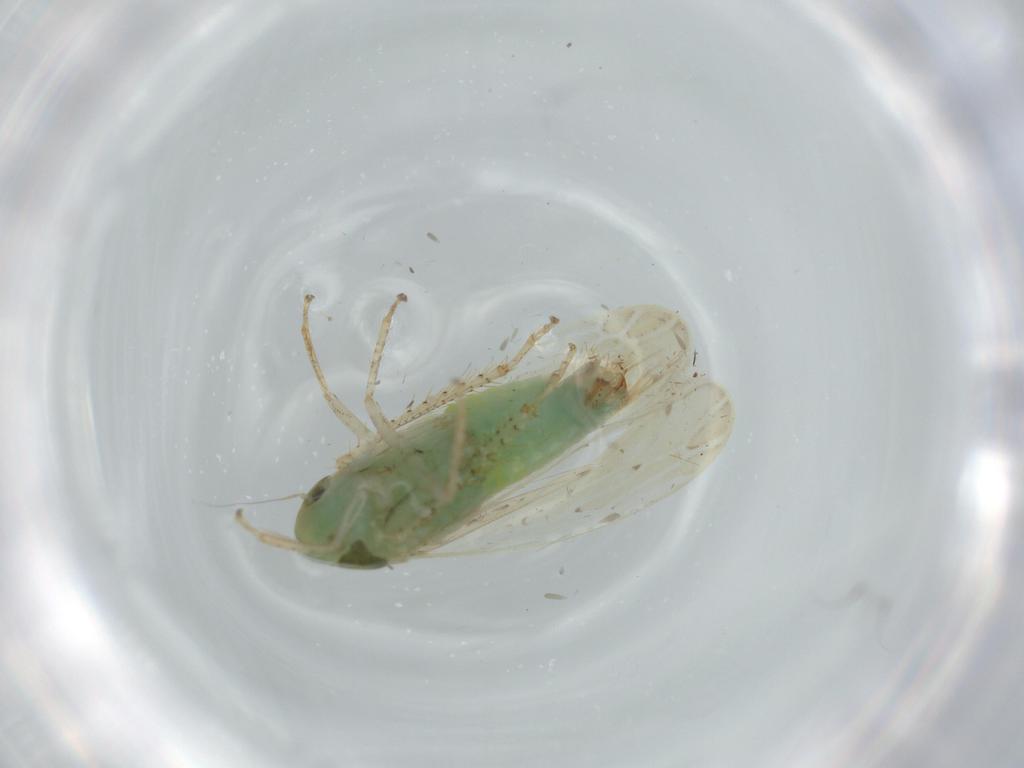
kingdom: Animalia
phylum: Arthropoda
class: Insecta
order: Hemiptera
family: Cicadellidae
